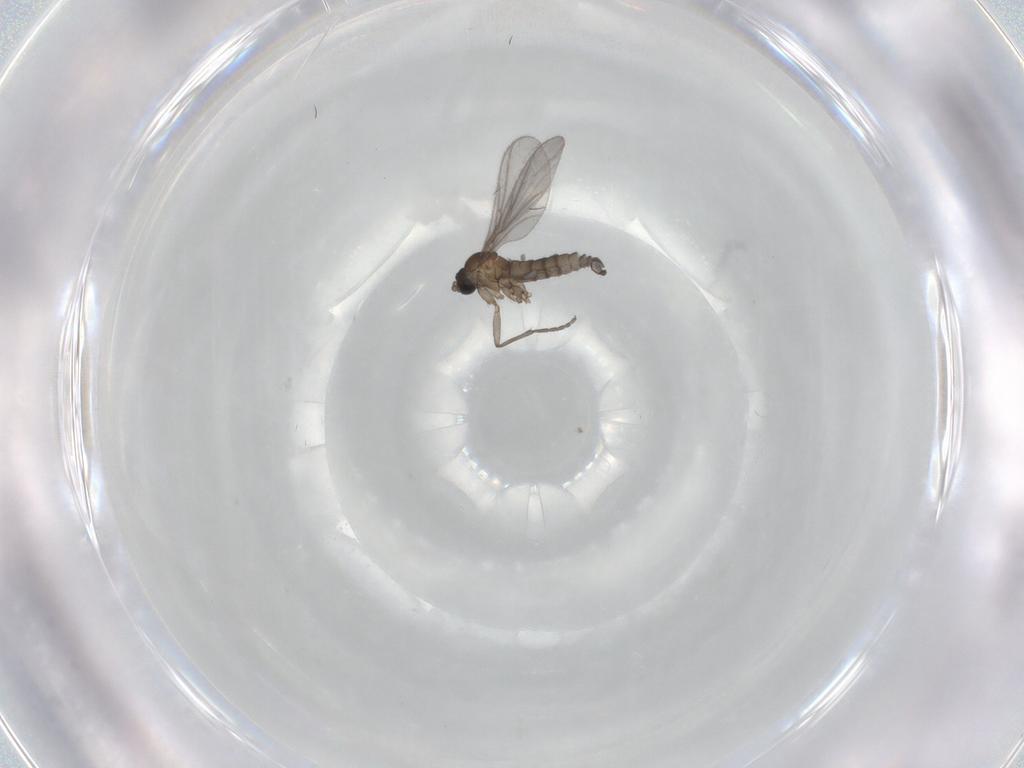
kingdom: Animalia
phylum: Arthropoda
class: Insecta
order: Diptera
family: Sciaridae
